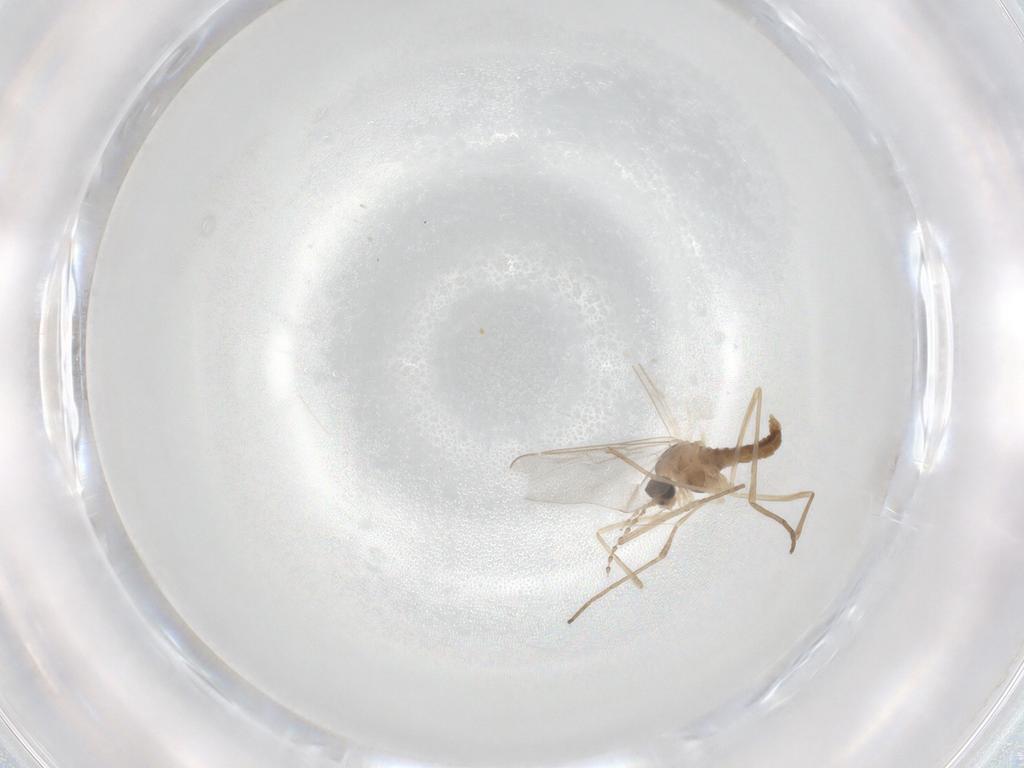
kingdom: Animalia
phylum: Arthropoda
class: Insecta
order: Diptera
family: Cecidomyiidae
